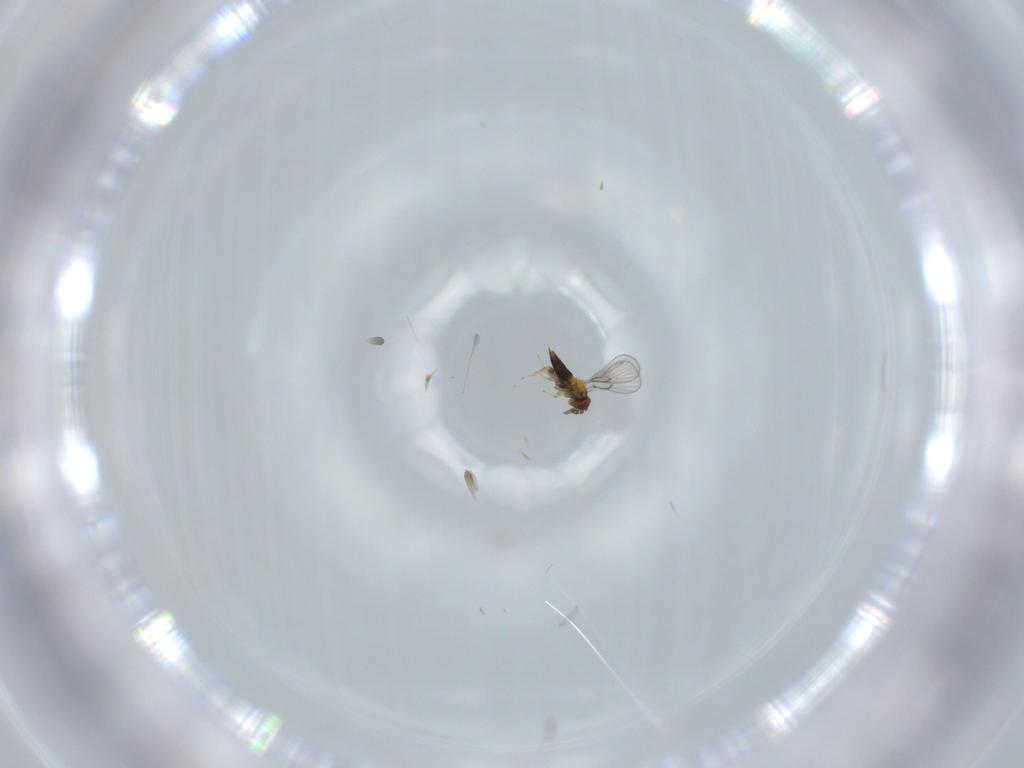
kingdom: Animalia
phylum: Arthropoda
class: Insecta
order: Hymenoptera
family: Trichogrammatidae
